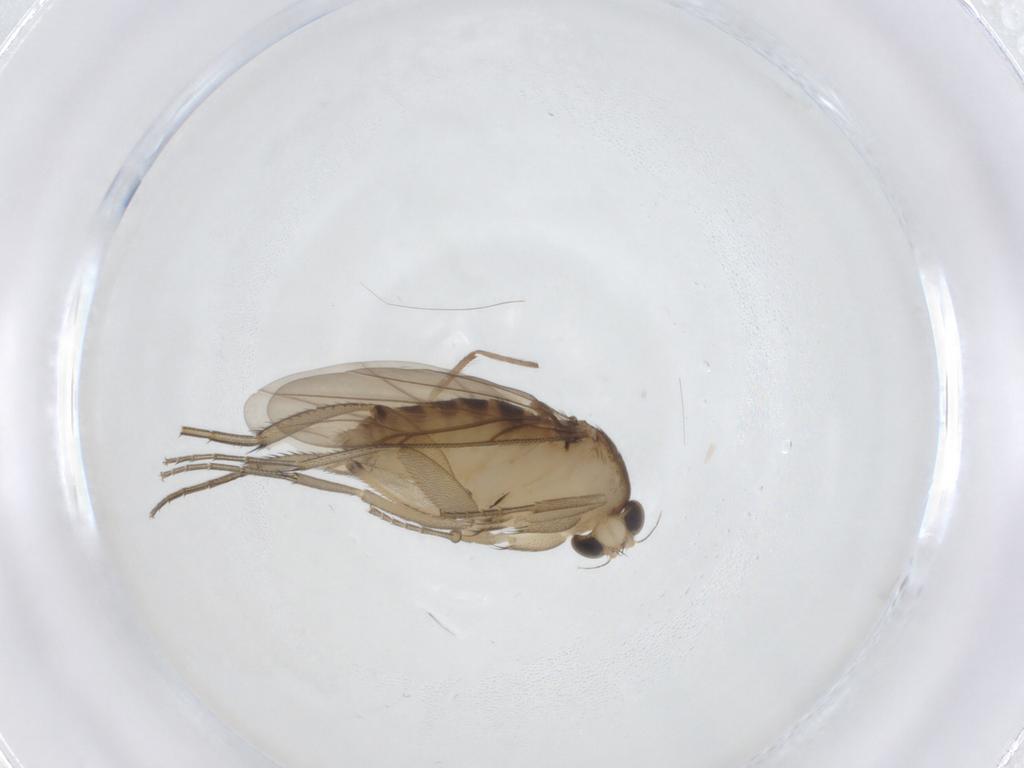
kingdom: Animalia
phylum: Arthropoda
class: Insecta
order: Diptera
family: Phoridae
